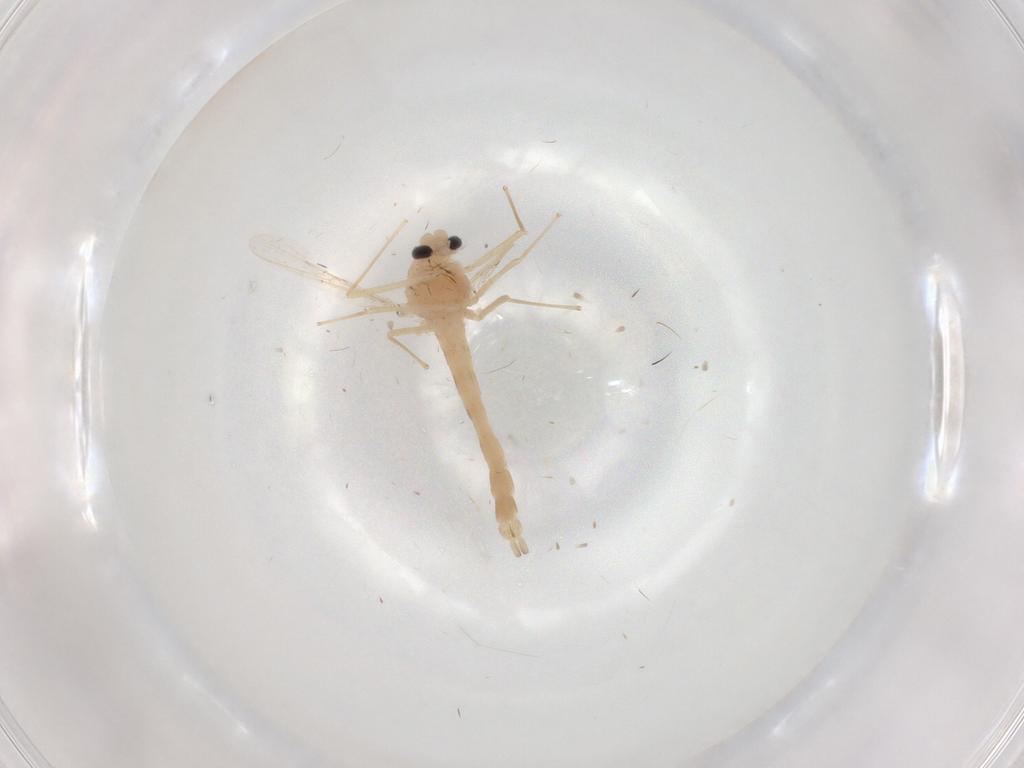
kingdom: Animalia
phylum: Arthropoda
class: Insecta
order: Diptera
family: Chironomidae
